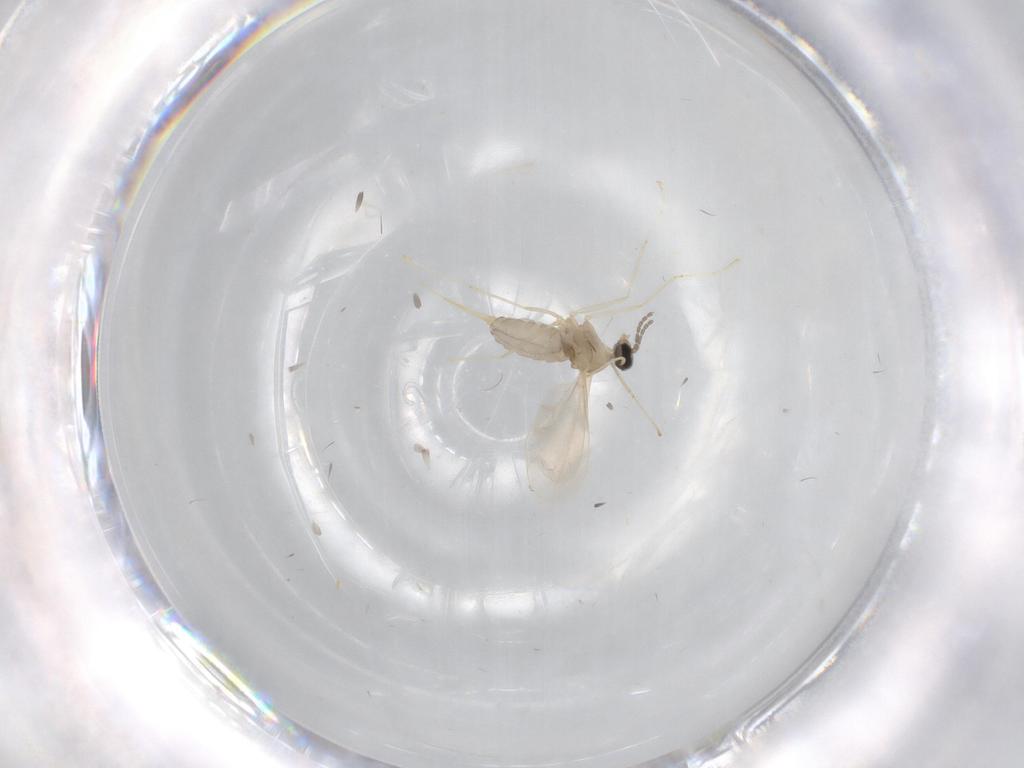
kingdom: Animalia
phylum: Arthropoda
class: Insecta
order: Diptera
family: Cecidomyiidae
